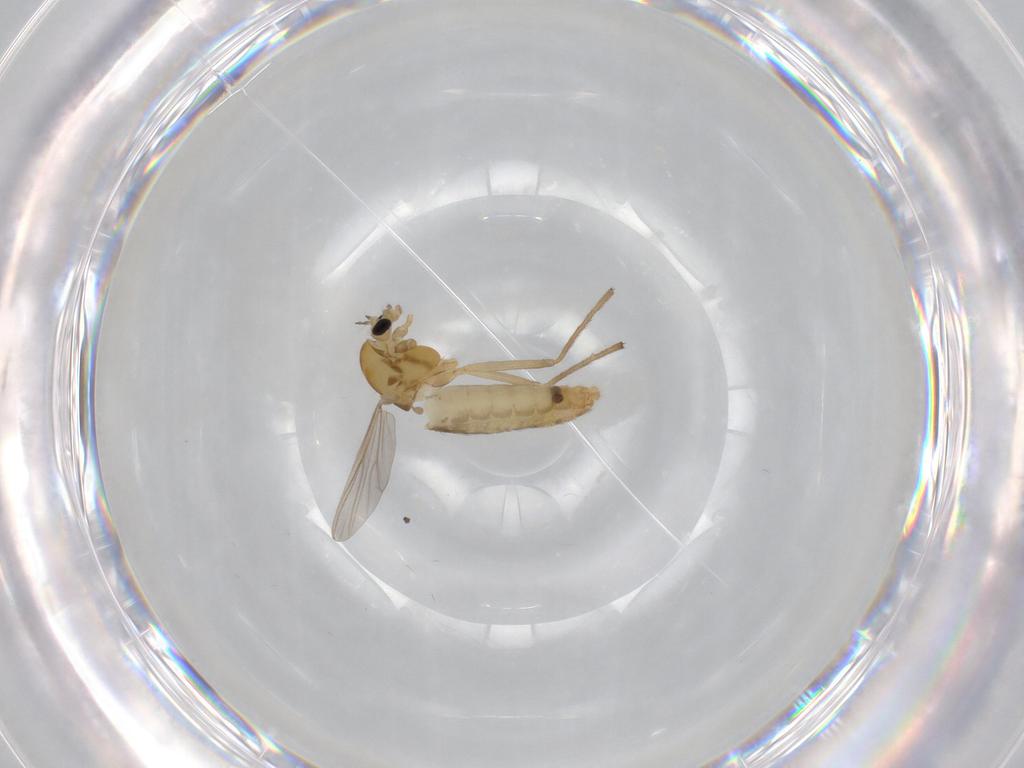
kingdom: Animalia
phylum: Arthropoda
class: Insecta
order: Diptera
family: Chironomidae
